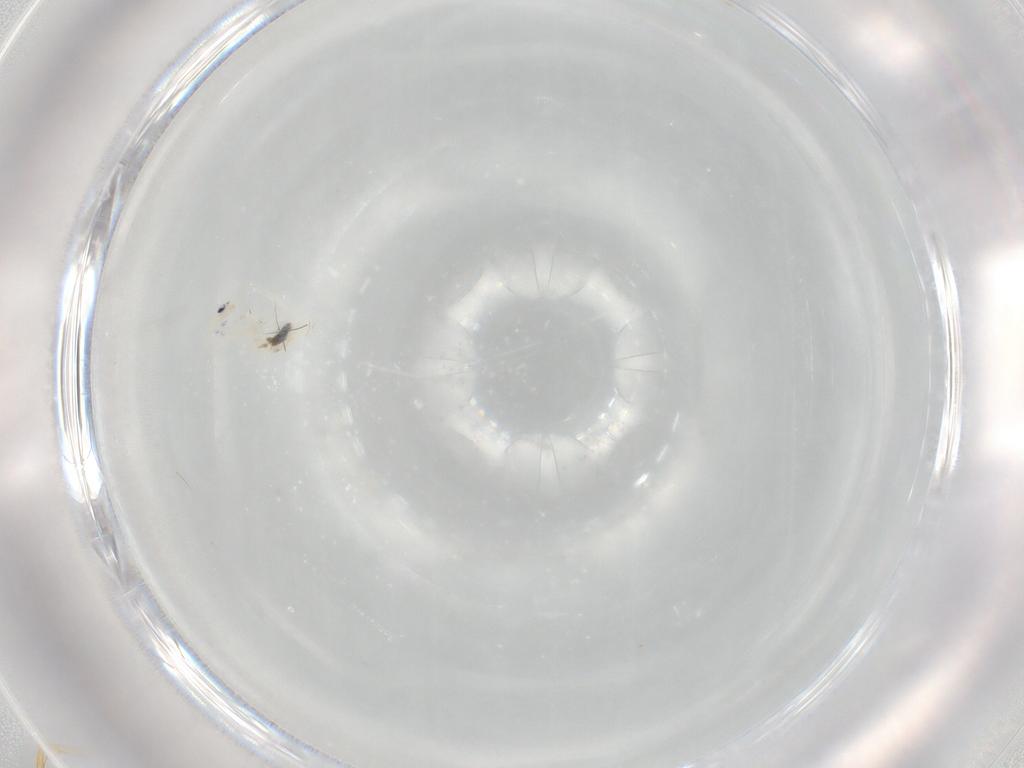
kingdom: Animalia
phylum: Arthropoda
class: Collembola
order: Entomobryomorpha
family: Entomobryidae
